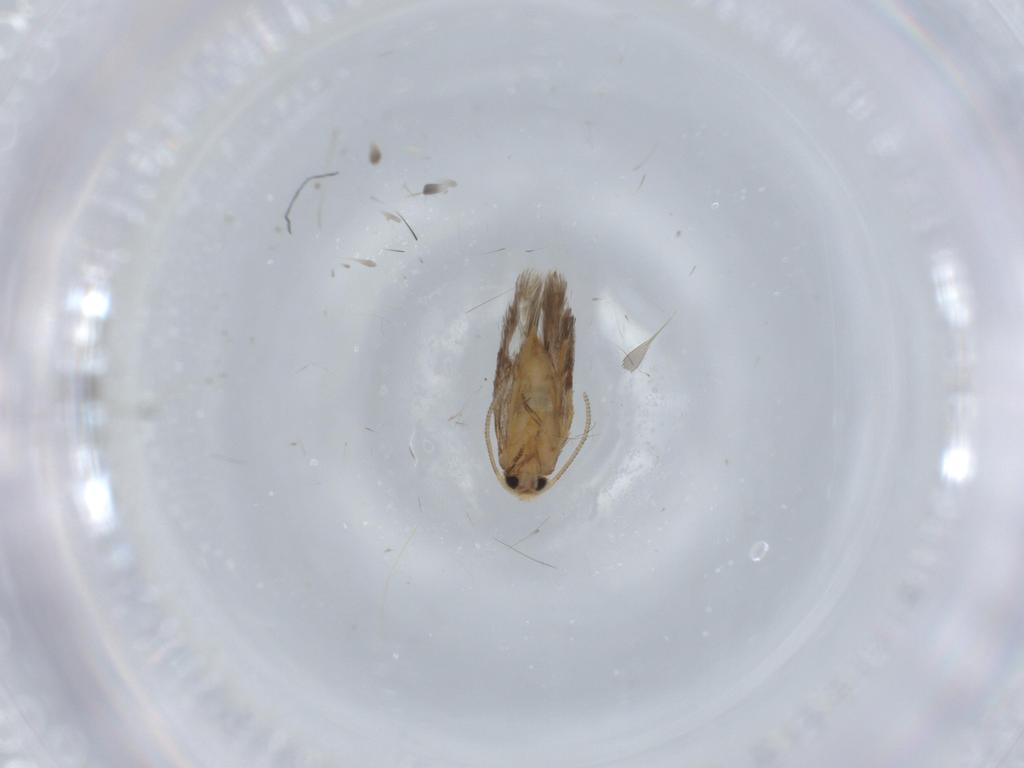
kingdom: Animalia
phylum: Arthropoda
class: Insecta
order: Lepidoptera
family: Nepticulidae
